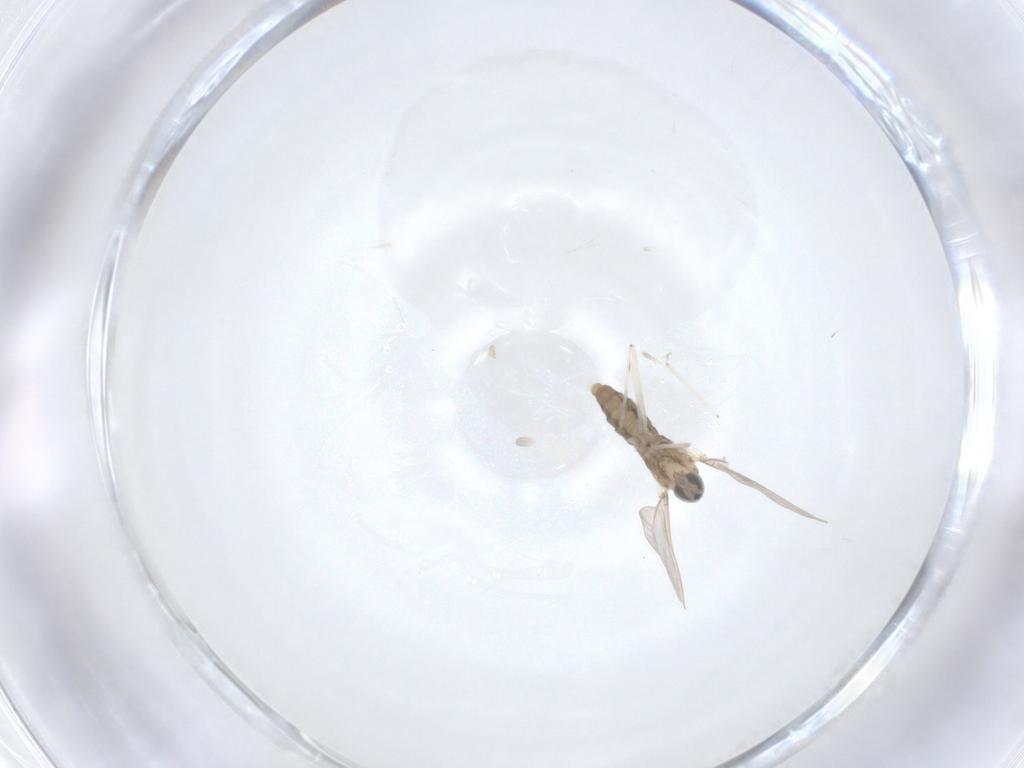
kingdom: Animalia
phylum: Arthropoda
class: Insecta
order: Diptera
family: Cecidomyiidae
